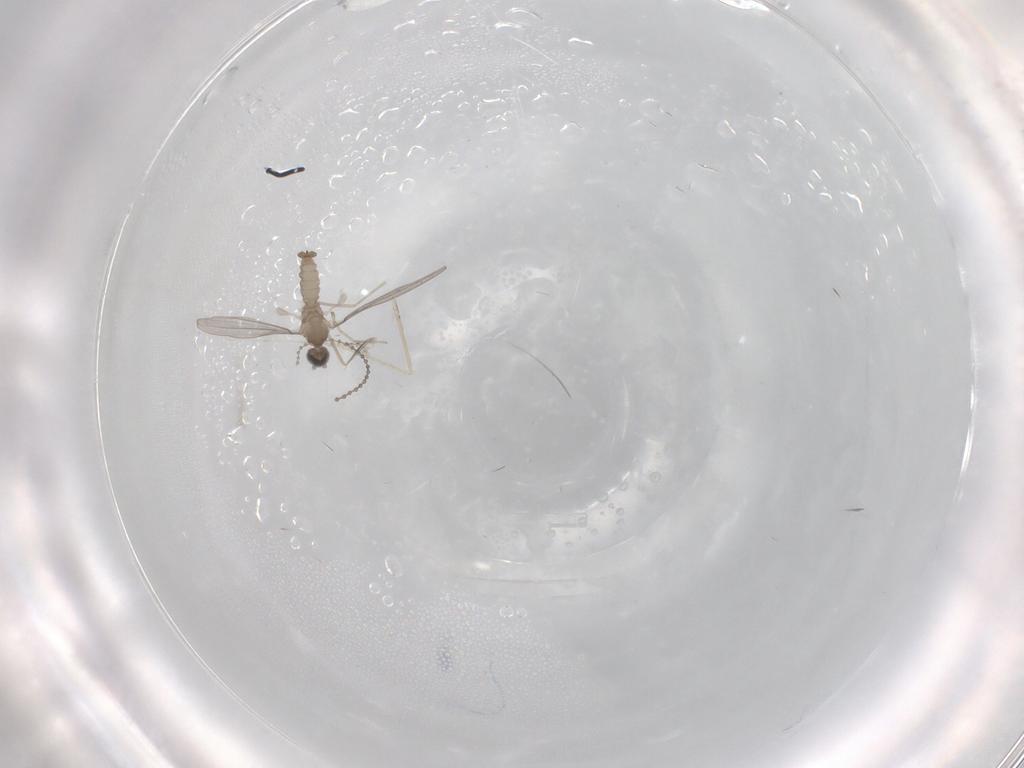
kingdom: Animalia
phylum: Arthropoda
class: Insecta
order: Diptera
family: Cecidomyiidae
